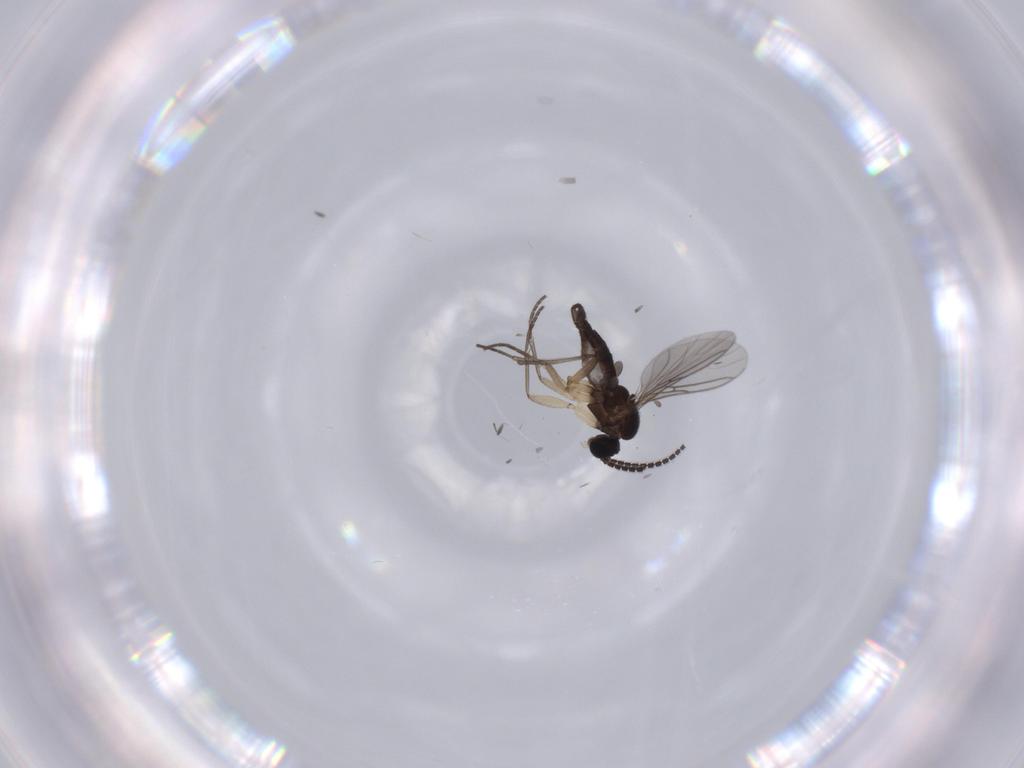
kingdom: Animalia
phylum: Arthropoda
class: Insecta
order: Diptera
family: Sciaridae
